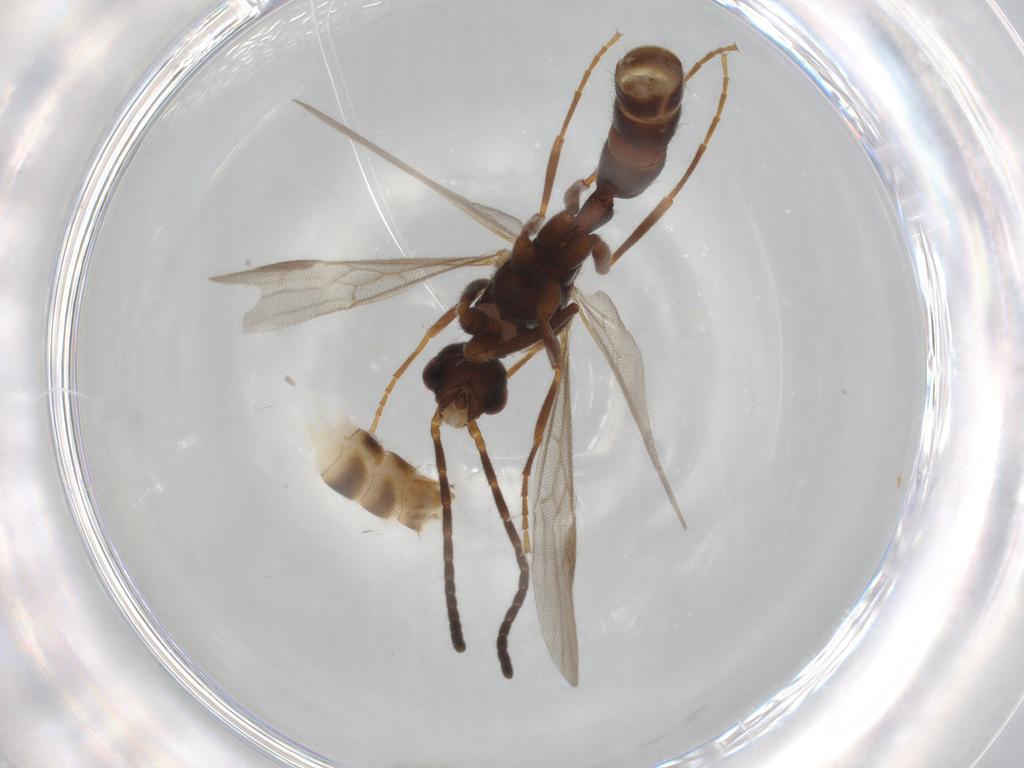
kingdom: Animalia
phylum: Arthropoda
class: Insecta
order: Hymenoptera
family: Formicidae
